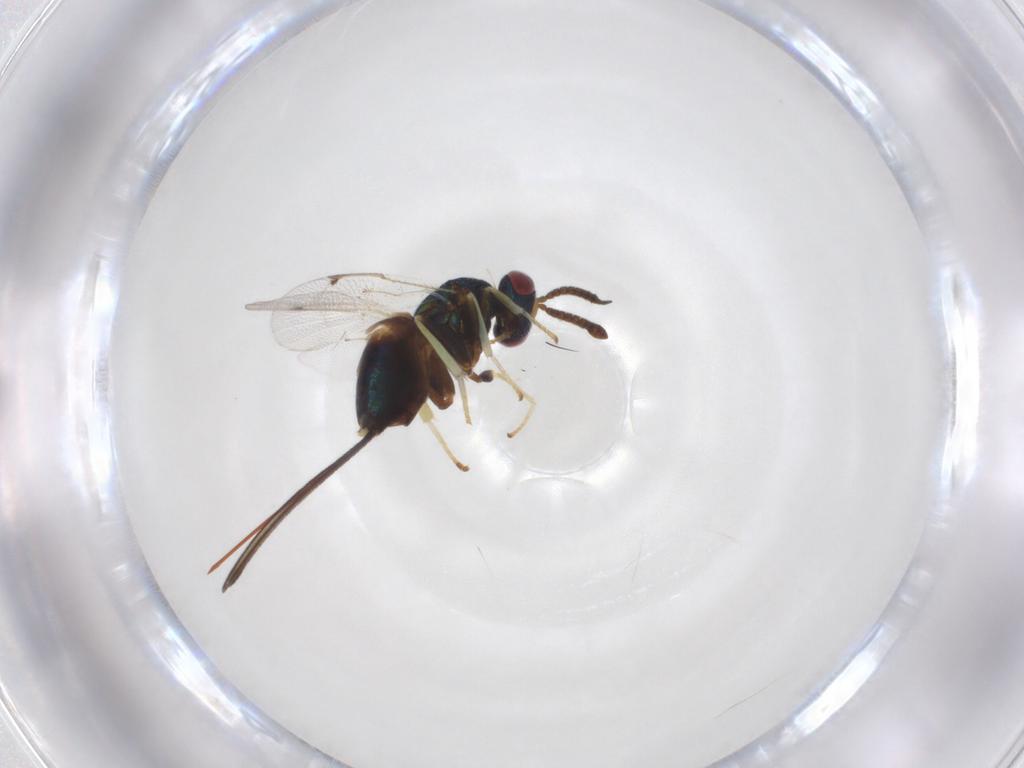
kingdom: Animalia
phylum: Arthropoda
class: Insecta
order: Hymenoptera
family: Torymidae
